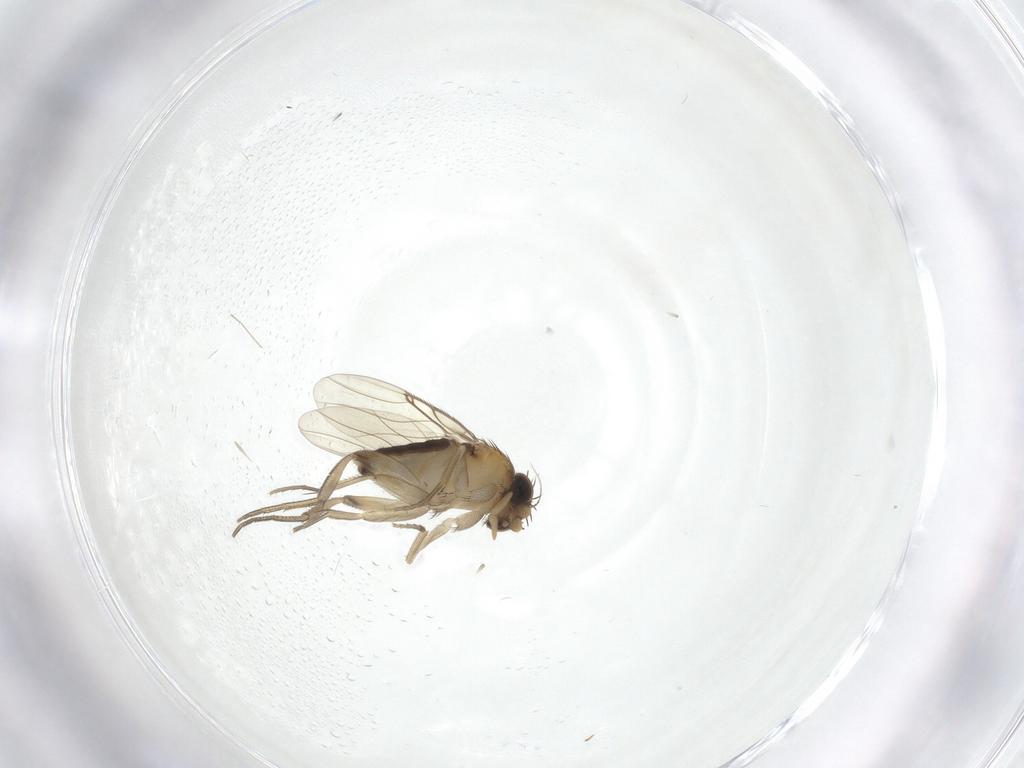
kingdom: Animalia
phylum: Arthropoda
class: Insecta
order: Diptera
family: Phoridae
